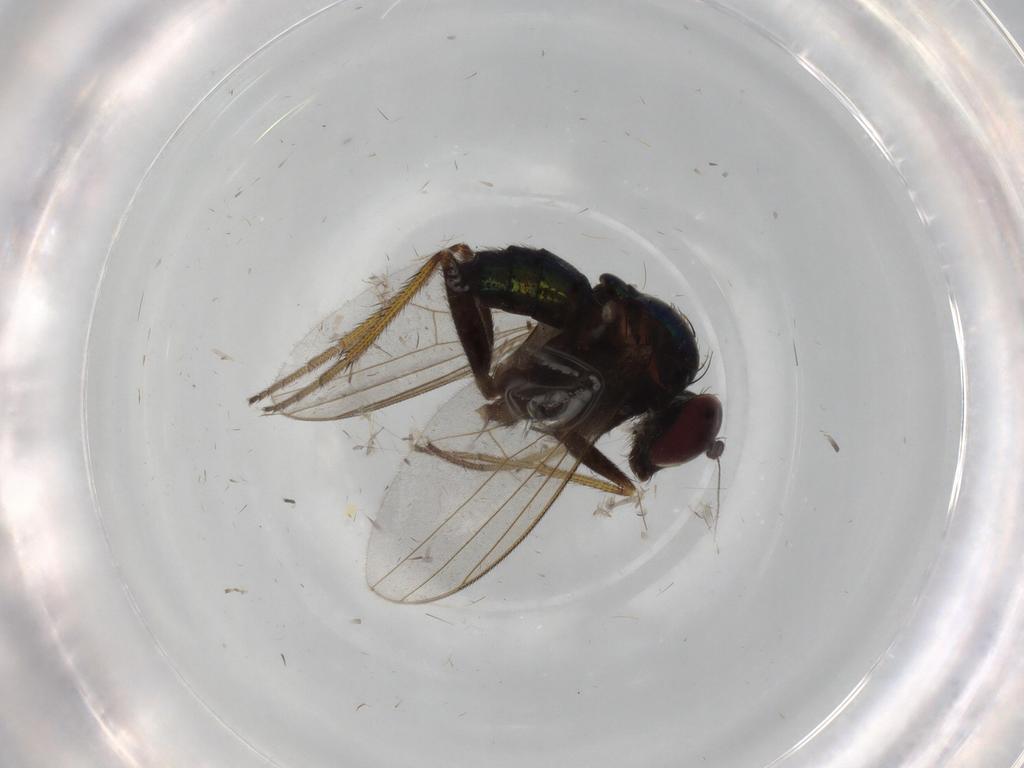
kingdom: Animalia
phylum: Arthropoda
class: Insecta
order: Diptera
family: Dolichopodidae
